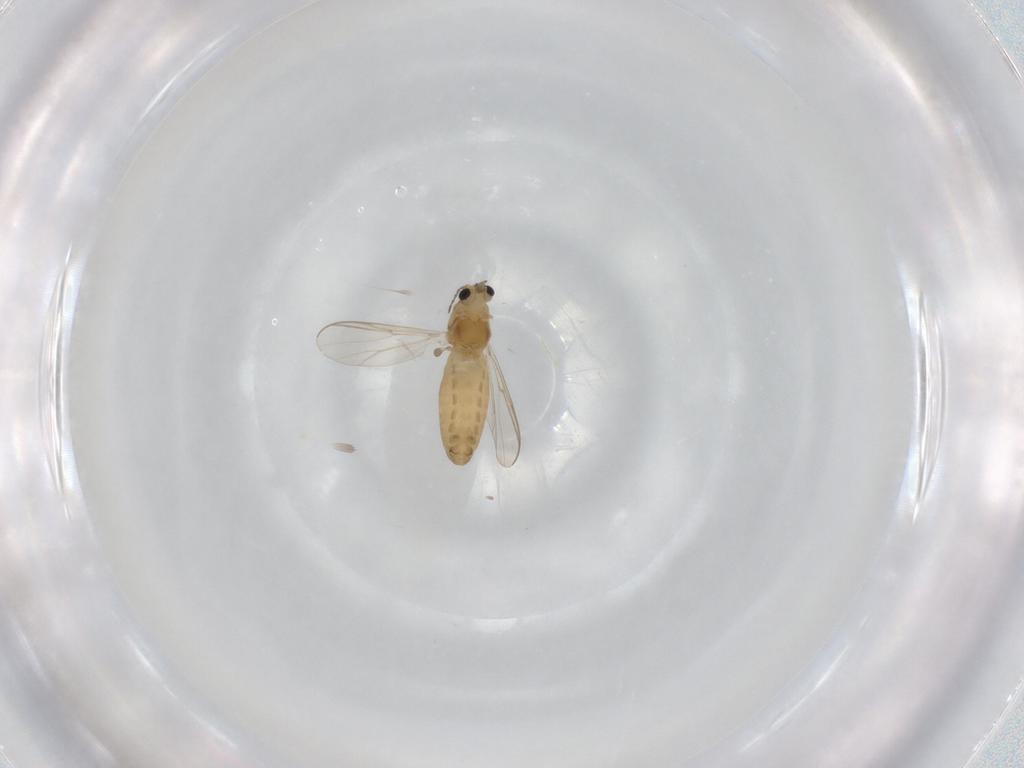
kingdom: Animalia
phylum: Arthropoda
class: Insecta
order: Diptera
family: Chironomidae
